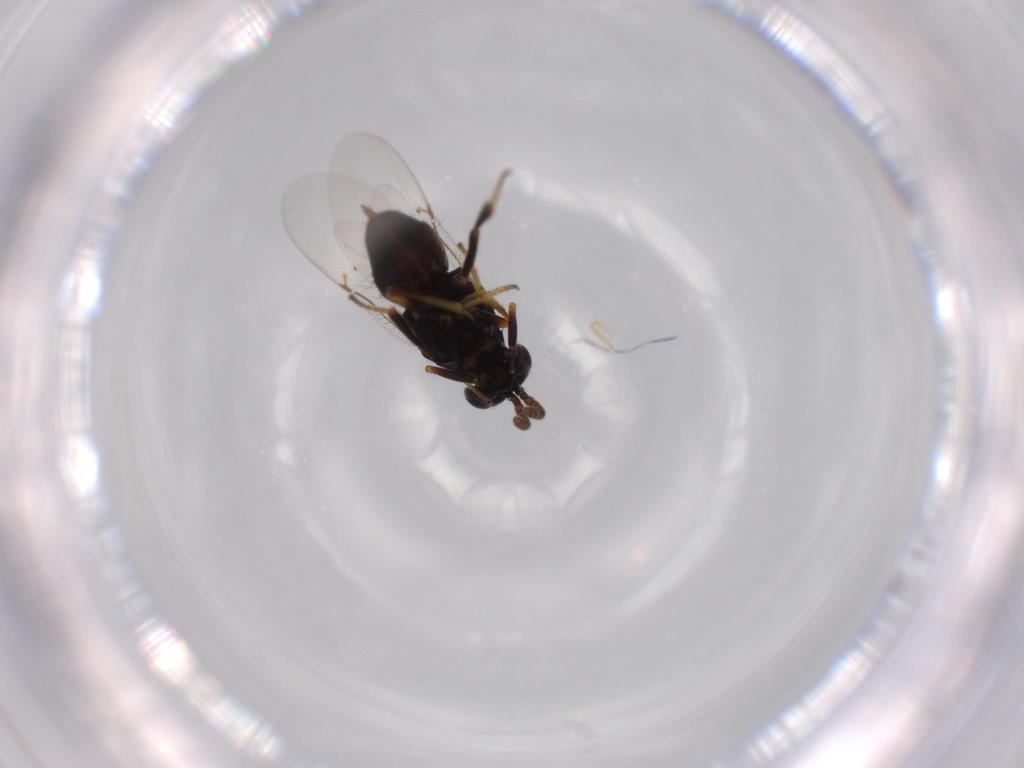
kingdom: Animalia
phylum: Arthropoda
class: Insecta
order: Hymenoptera
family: Encyrtidae
